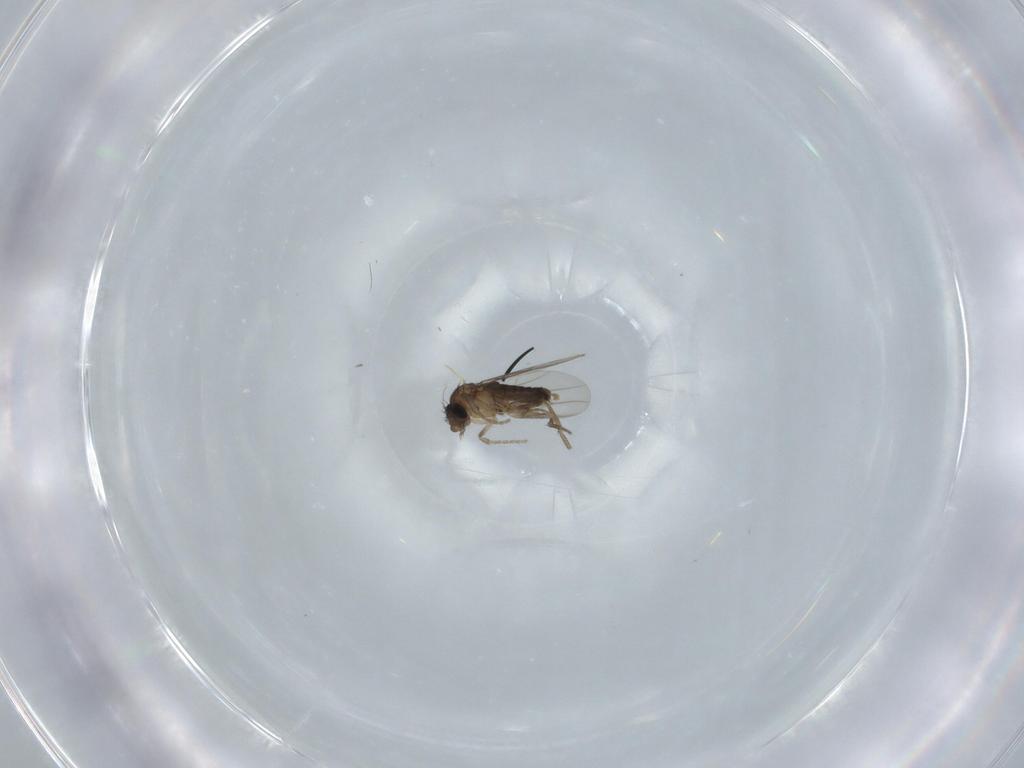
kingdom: Animalia
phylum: Arthropoda
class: Insecta
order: Diptera
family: Phoridae
